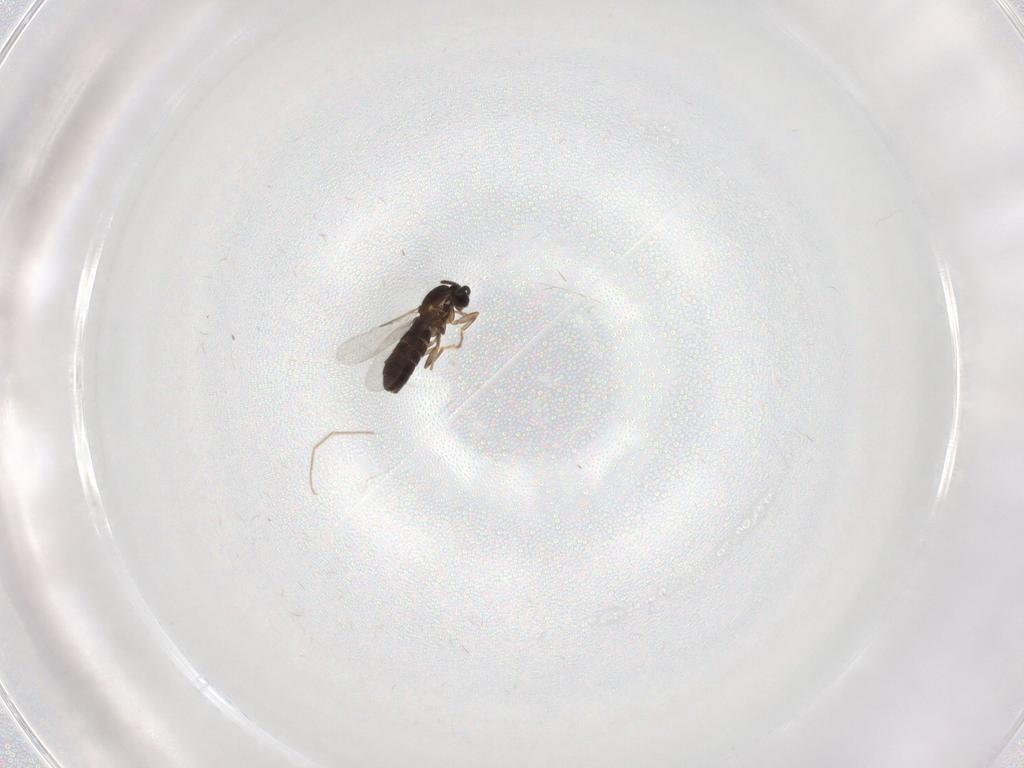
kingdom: Animalia
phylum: Arthropoda
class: Insecta
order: Diptera
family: Scatopsidae
